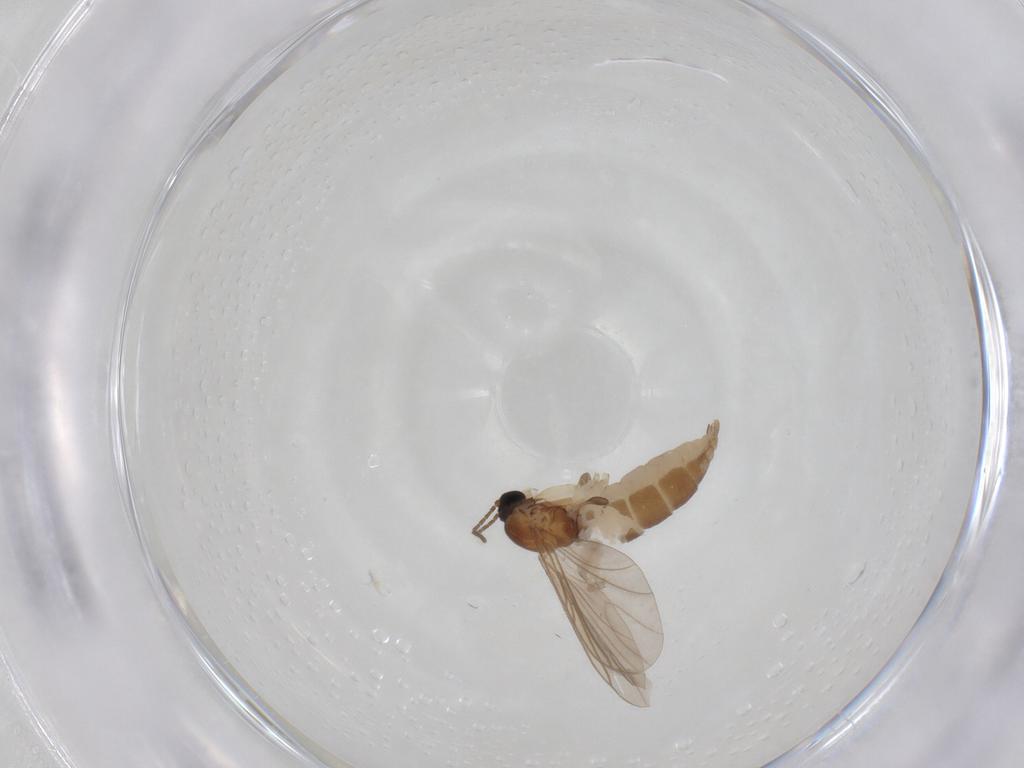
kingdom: Animalia
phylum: Arthropoda
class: Insecta
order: Diptera
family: Sciaridae
